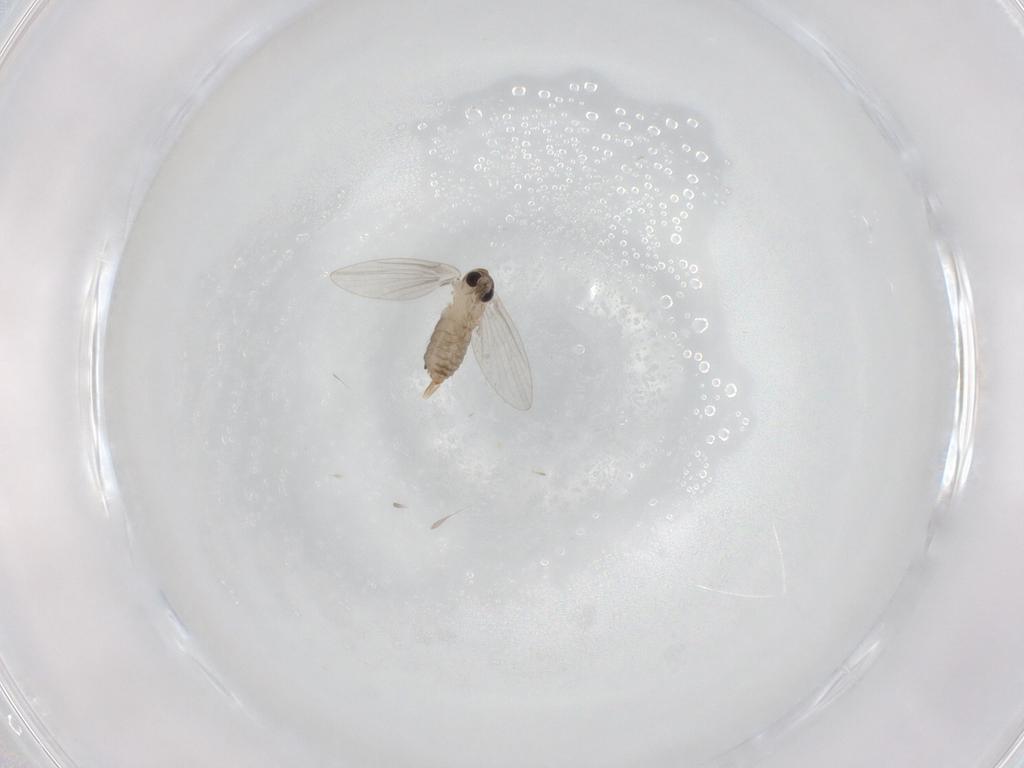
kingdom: Animalia
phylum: Arthropoda
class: Insecta
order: Diptera
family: Psychodidae
